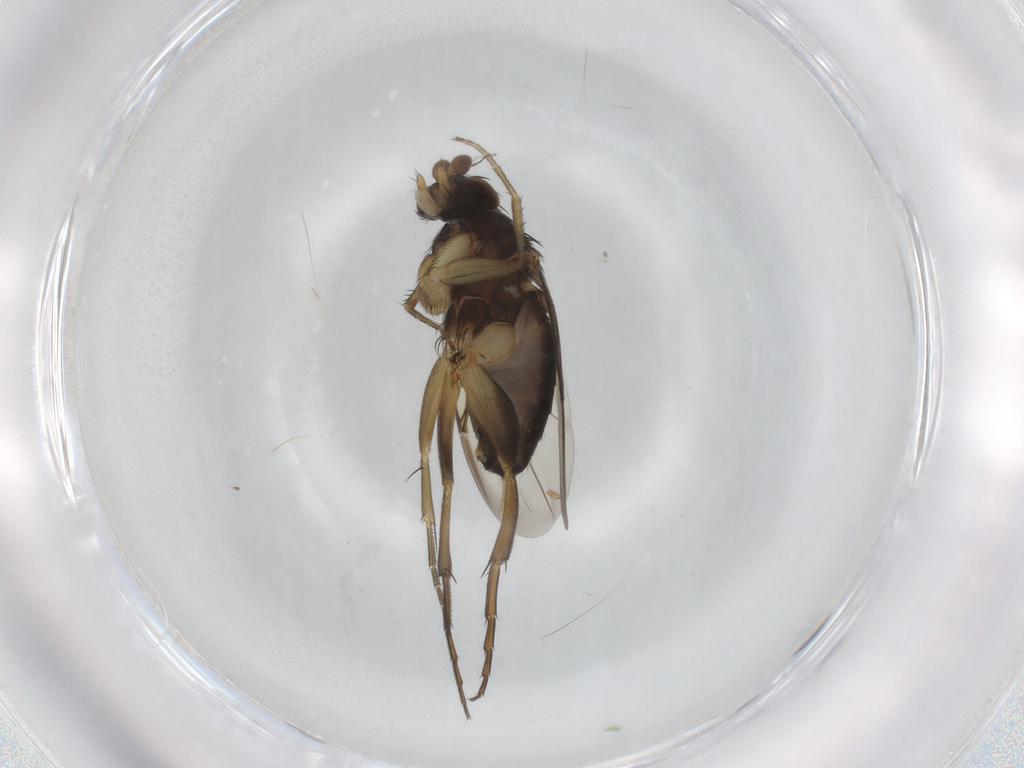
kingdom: Animalia
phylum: Arthropoda
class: Insecta
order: Diptera
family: Phoridae
